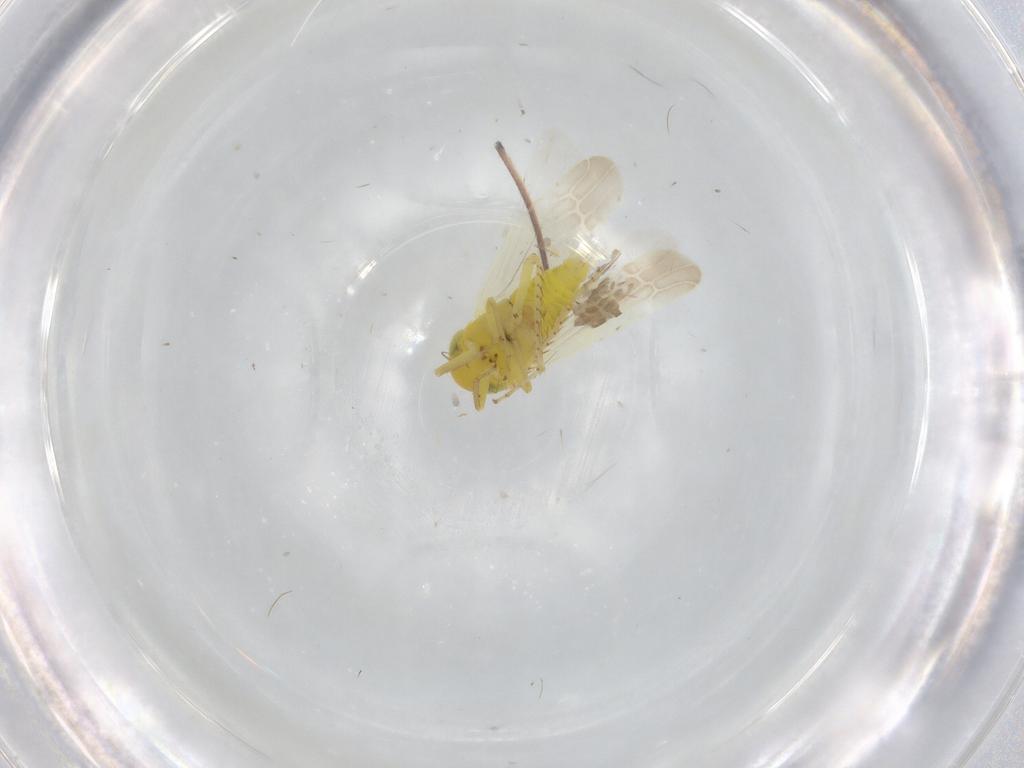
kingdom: Animalia
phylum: Arthropoda
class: Insecta
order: Hemiptera
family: Cicadellidae
